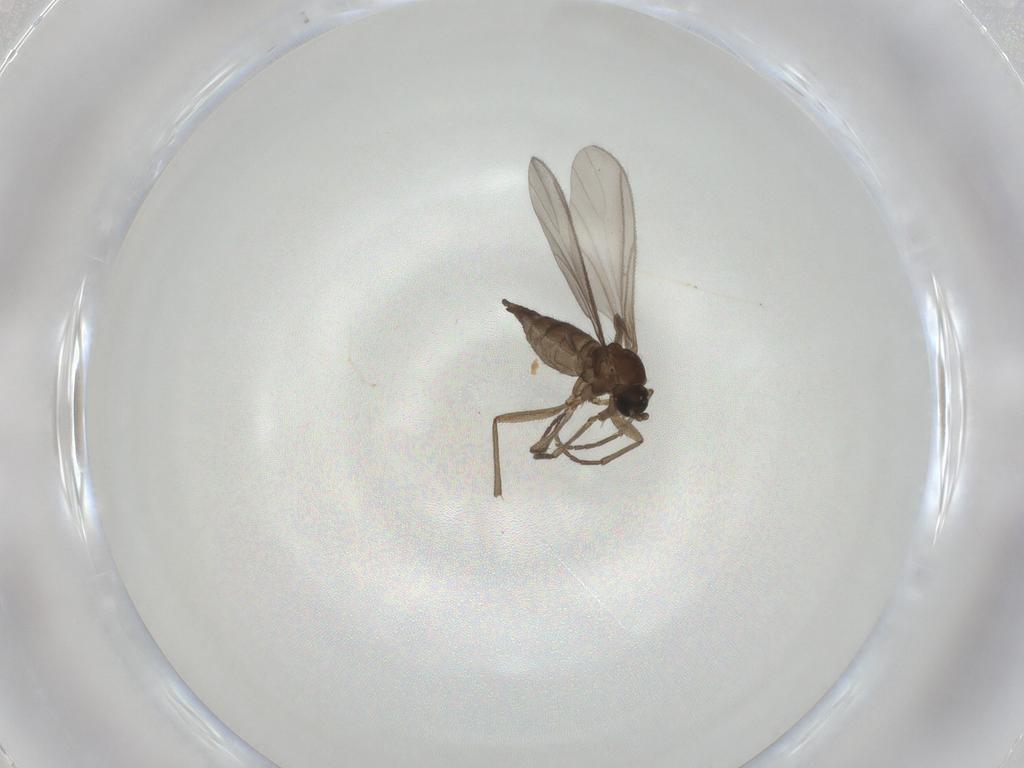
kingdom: Animalia
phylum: Arthropoda
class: Insecta
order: Diptera
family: Sciaridae
